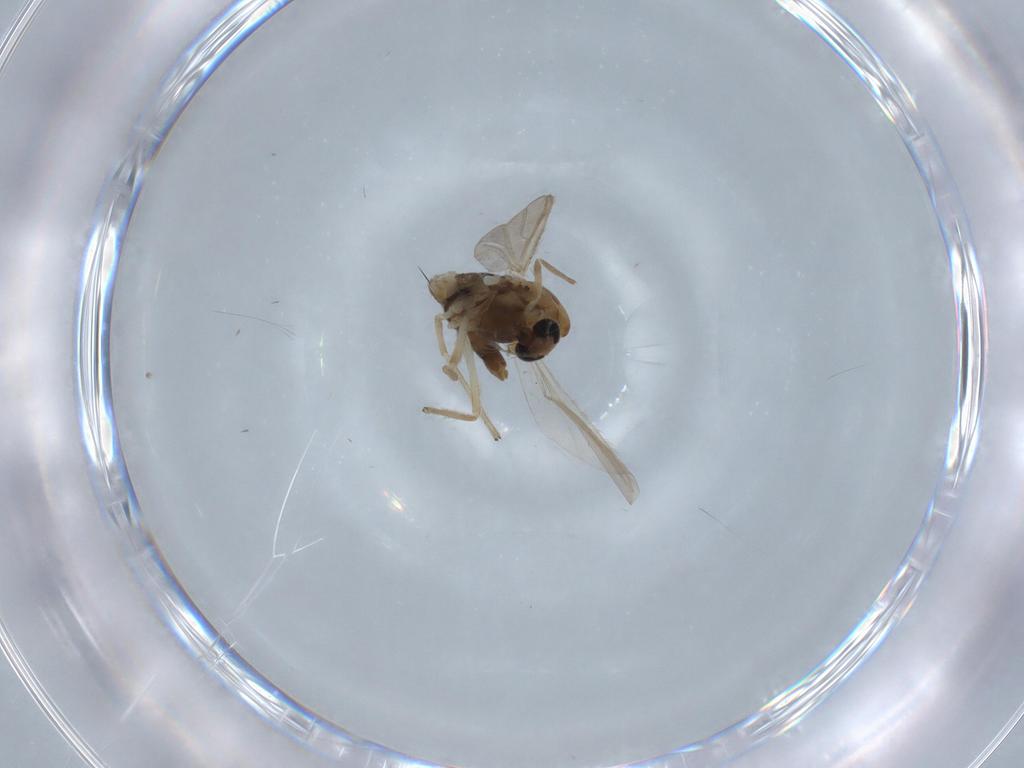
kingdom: Animalia
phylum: Arthropoda
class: Insecta
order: Diptera
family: Chironomidae
